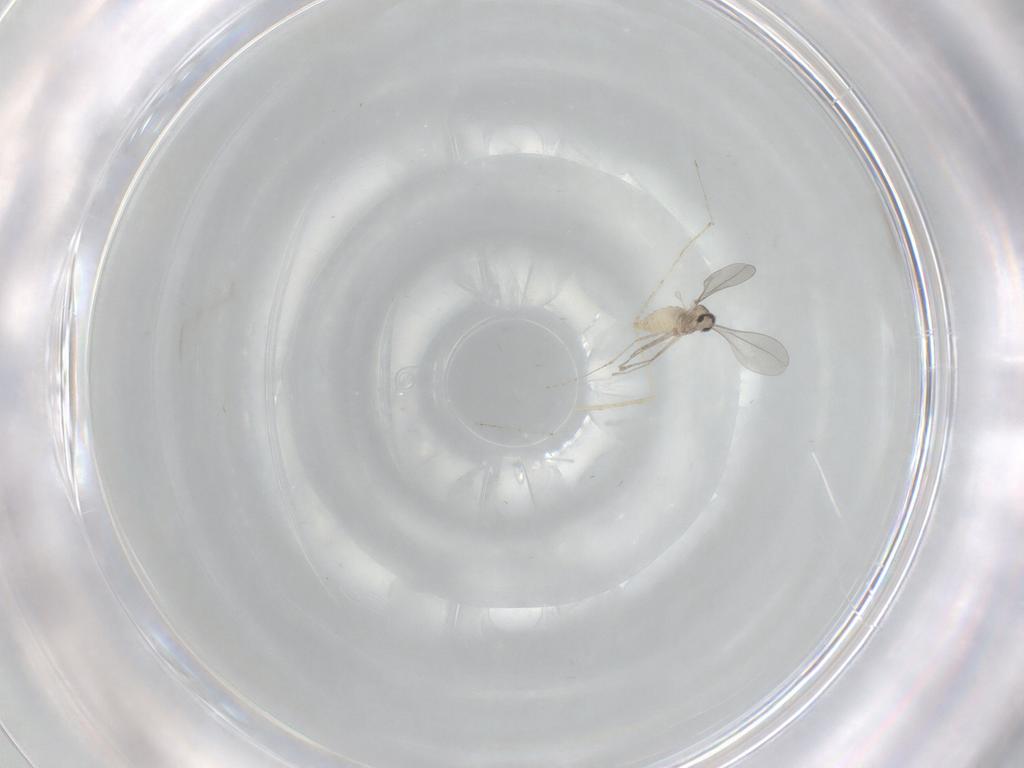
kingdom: Animalia
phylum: Arthropoda
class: Insecta
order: Diptera
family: Cecidomyiidae
